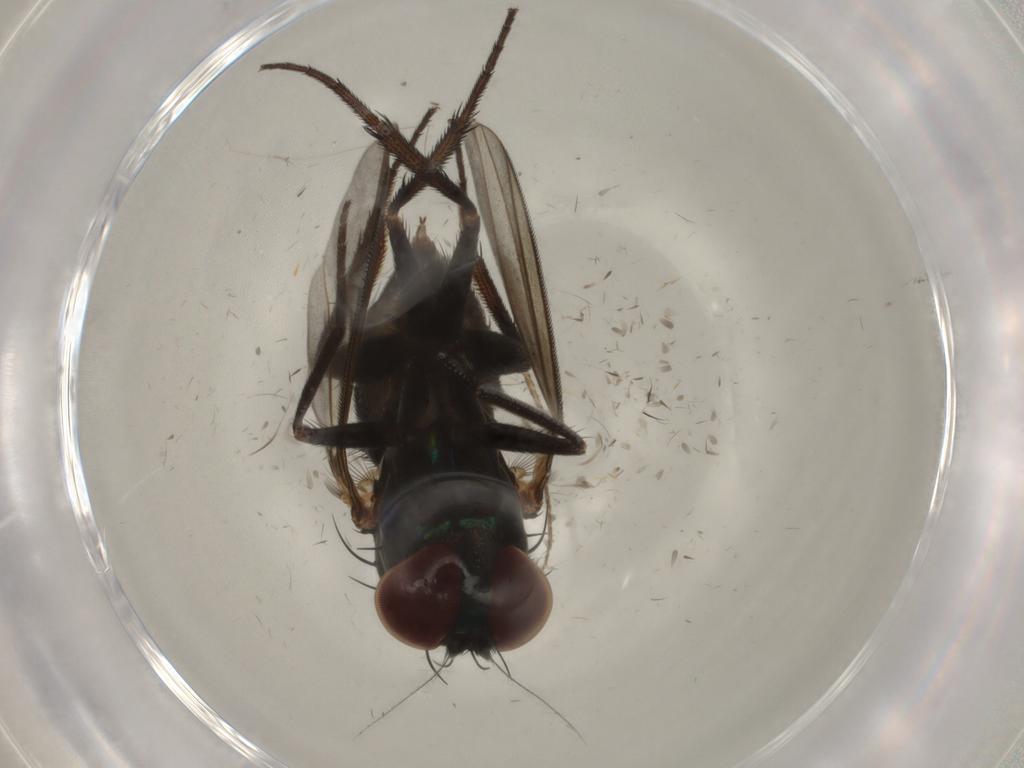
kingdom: Animalia
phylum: Arthropoda
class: Insecta
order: Diptera
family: Dolichopodidae
